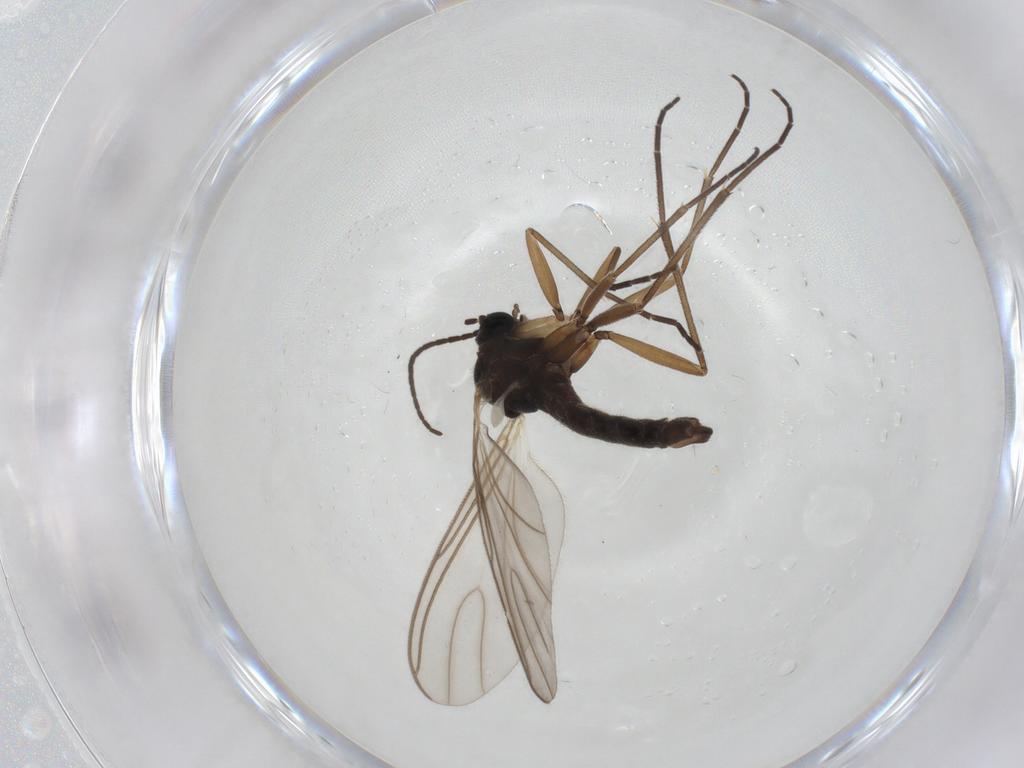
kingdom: Animalia
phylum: Arthropoda
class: Insecta
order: Diptera
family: Sciaridae
